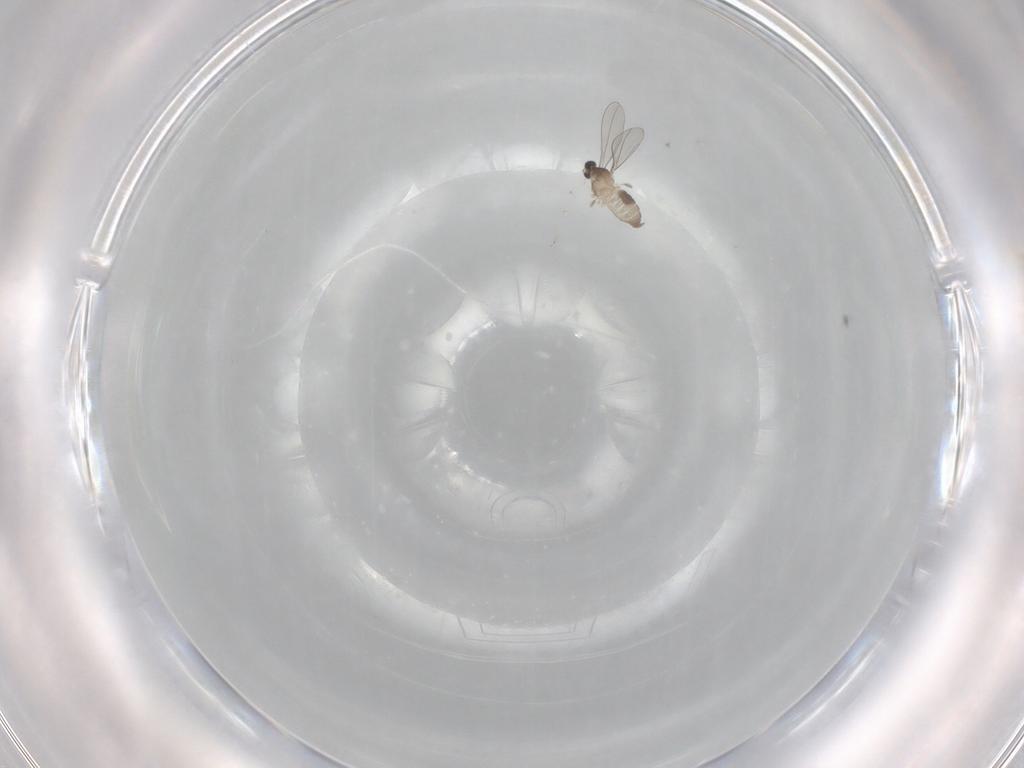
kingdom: Animalia
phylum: Arthropoda
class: Insecta
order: Diptera
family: Cecidomyiidae
